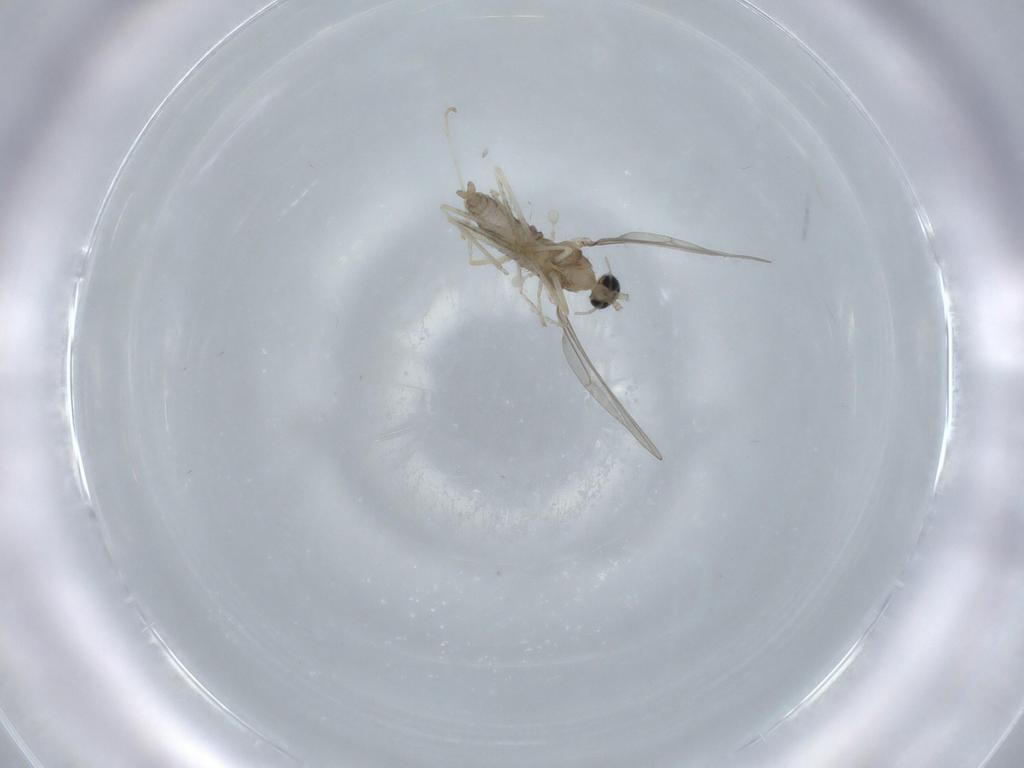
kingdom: Animalia
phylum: Arthropoda
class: Insecta
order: Diptera
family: Cecidomyiidae
